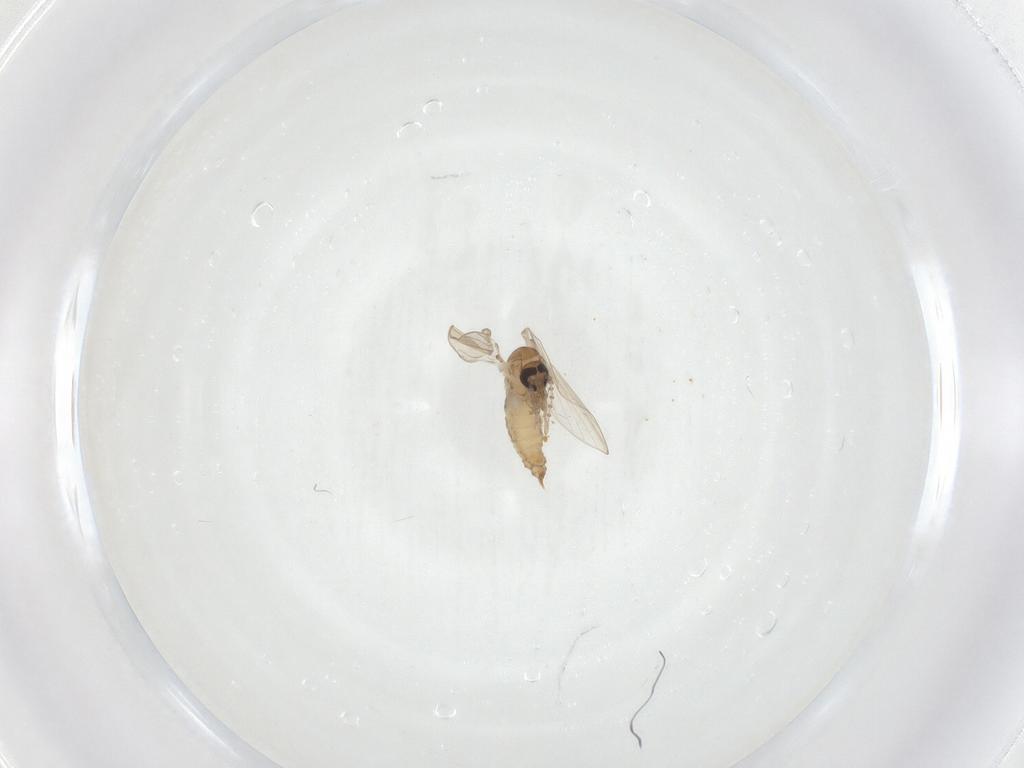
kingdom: Animalia
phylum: Arthropoda
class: Insecta
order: Diptera
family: Psychodidae
